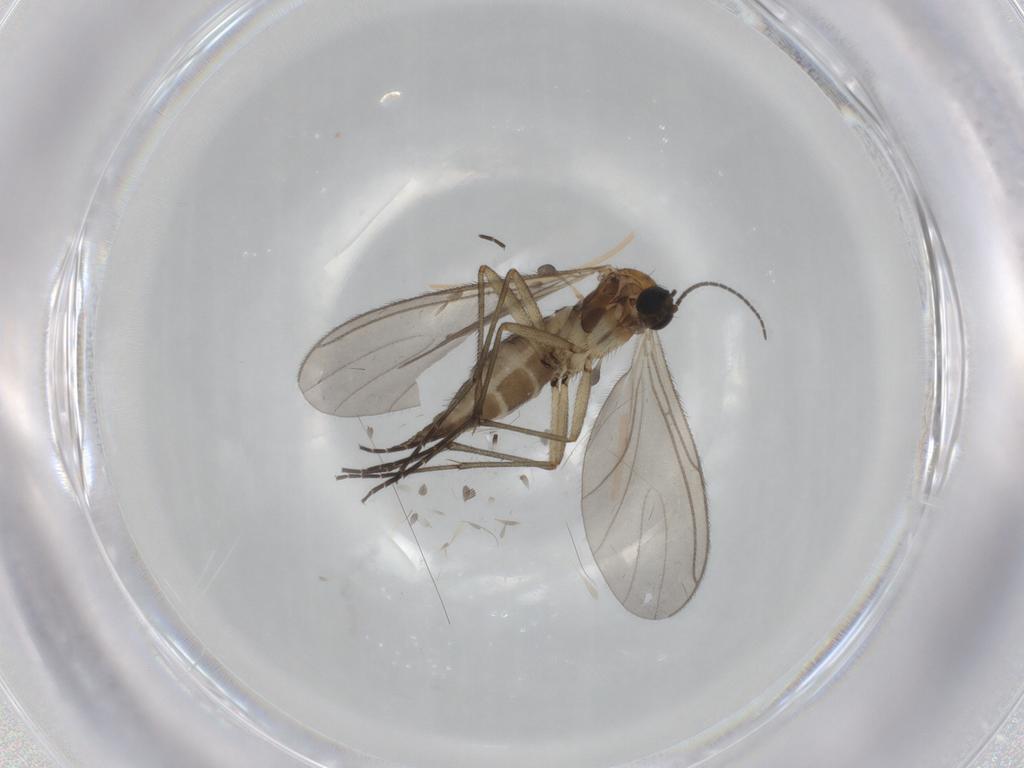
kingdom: Animalia
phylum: Arthropoda
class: Insecta
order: Diptera
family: Sciaridae
